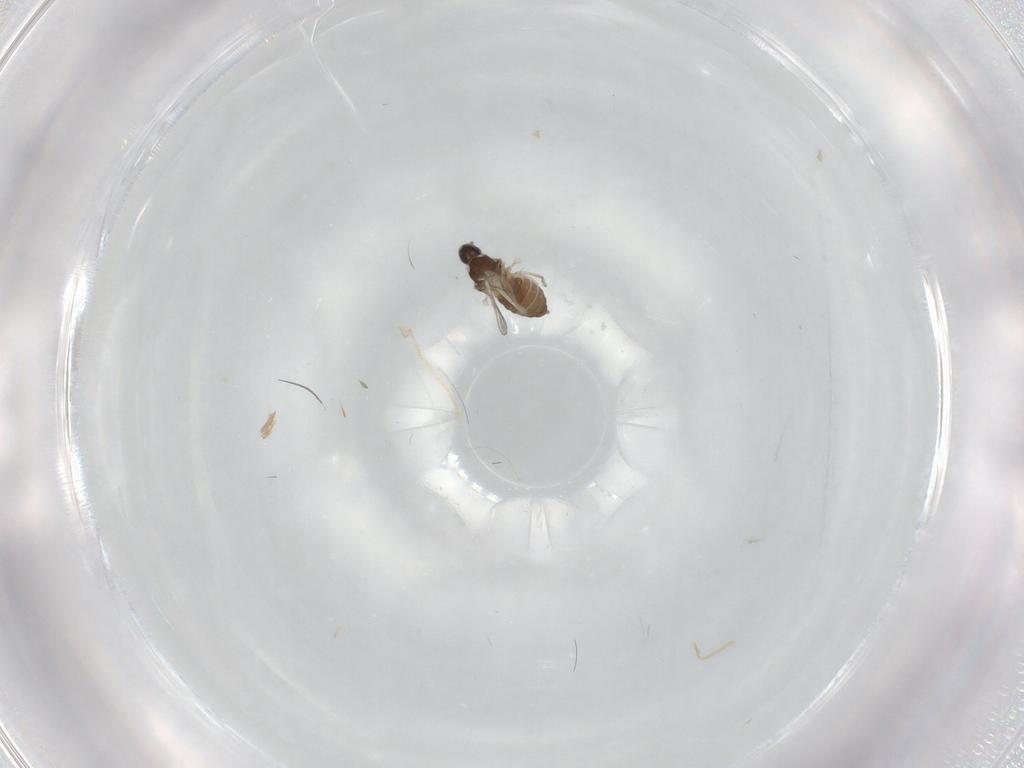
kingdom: Animalia
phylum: Arthropoda
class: Insecta
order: Diptera
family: Cecidomyiidae
